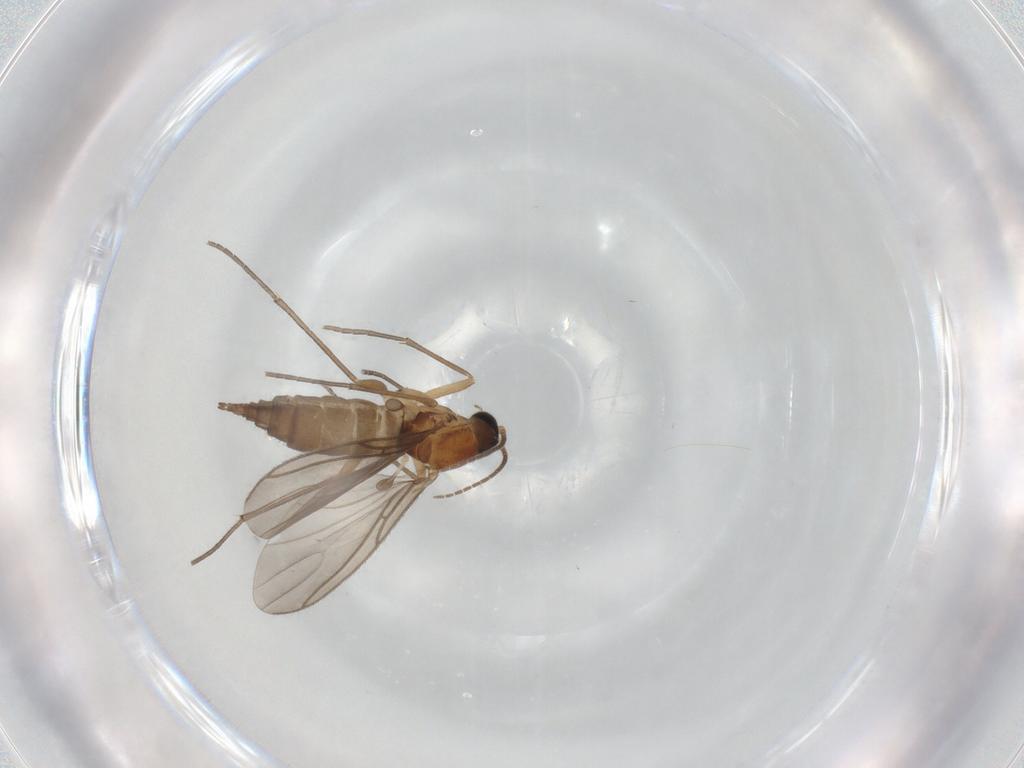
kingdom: Animalia
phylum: Arthropoda
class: Insecta
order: Diptera
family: Sciaridae
